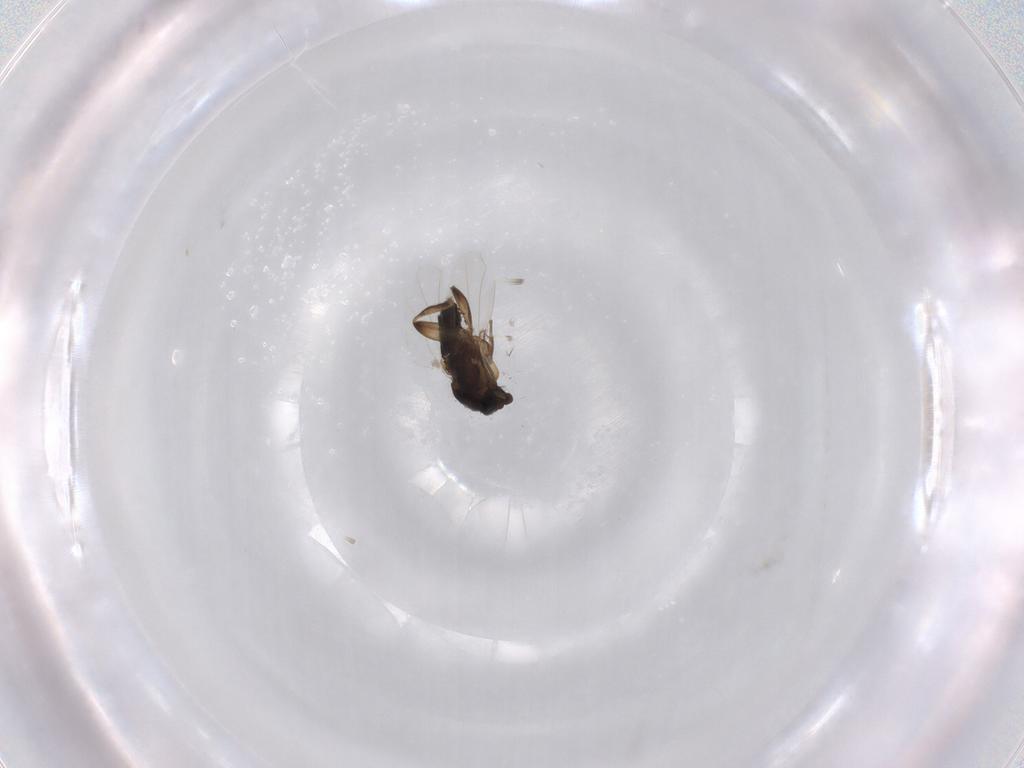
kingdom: Animalia
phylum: Arthropoda
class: Insecta
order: Diptera
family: Phoridae
